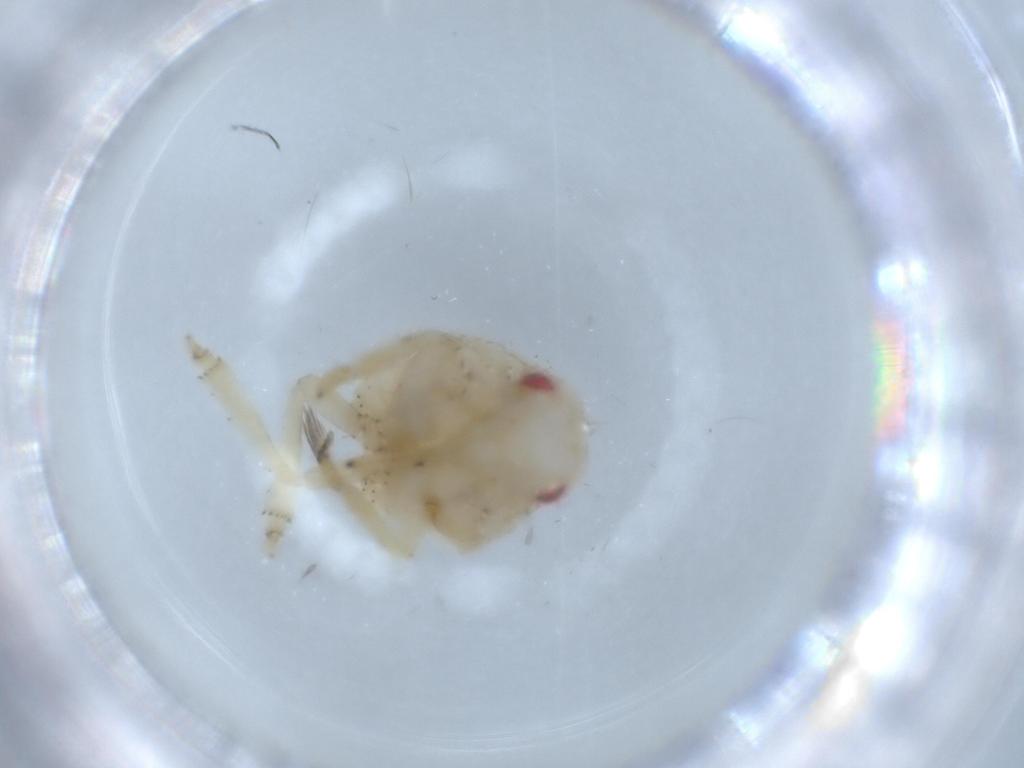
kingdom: Animalia
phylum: Arthropoda
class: Insecta
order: Hemiptera
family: Acanaloniidae
